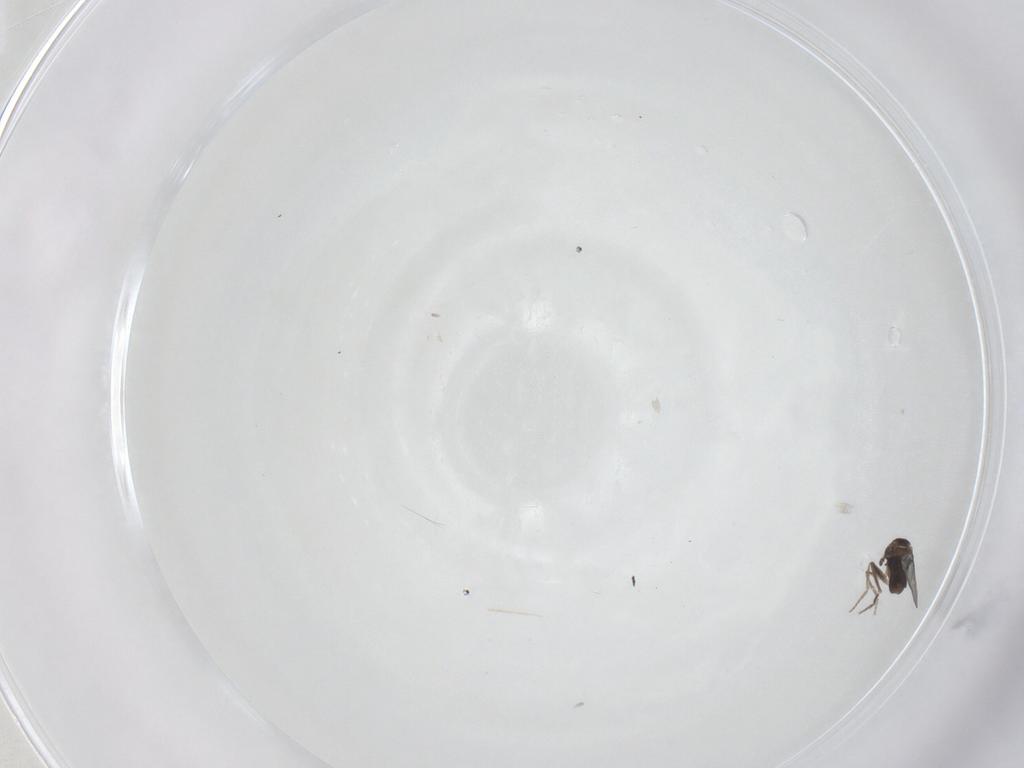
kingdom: Animalia
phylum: Arthropoda
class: Insecta
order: Diptera
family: Phoridae
